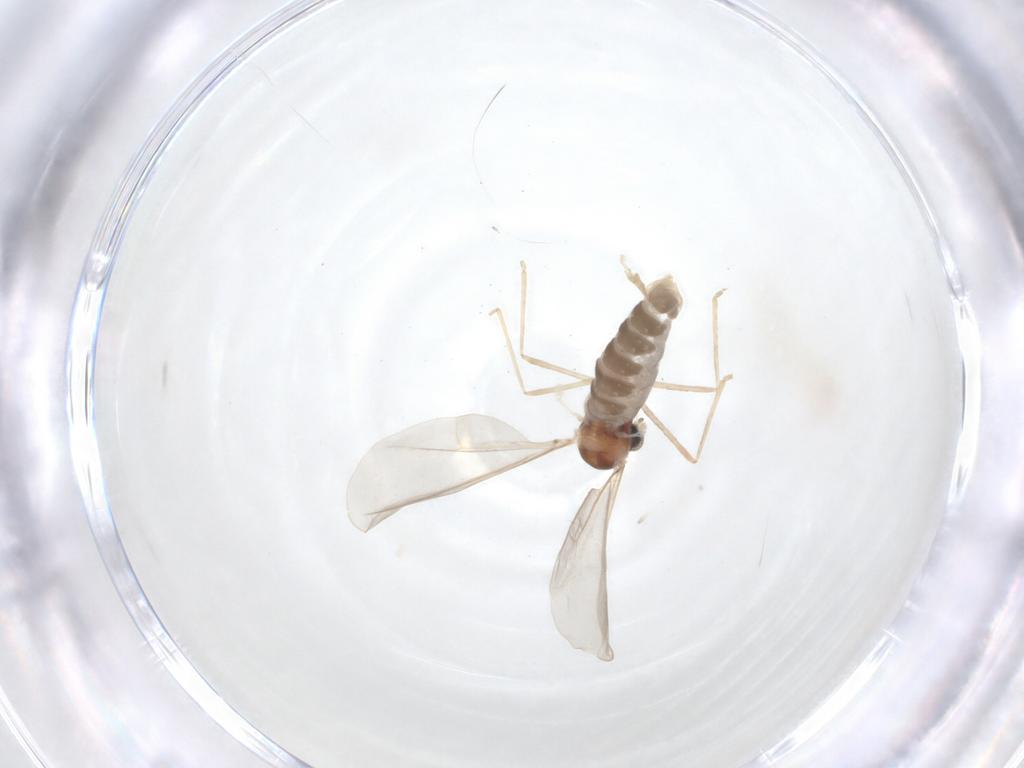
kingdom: Animalia
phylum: Arthropoda
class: Insecta
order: Diptera
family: Cecidomyiidae
